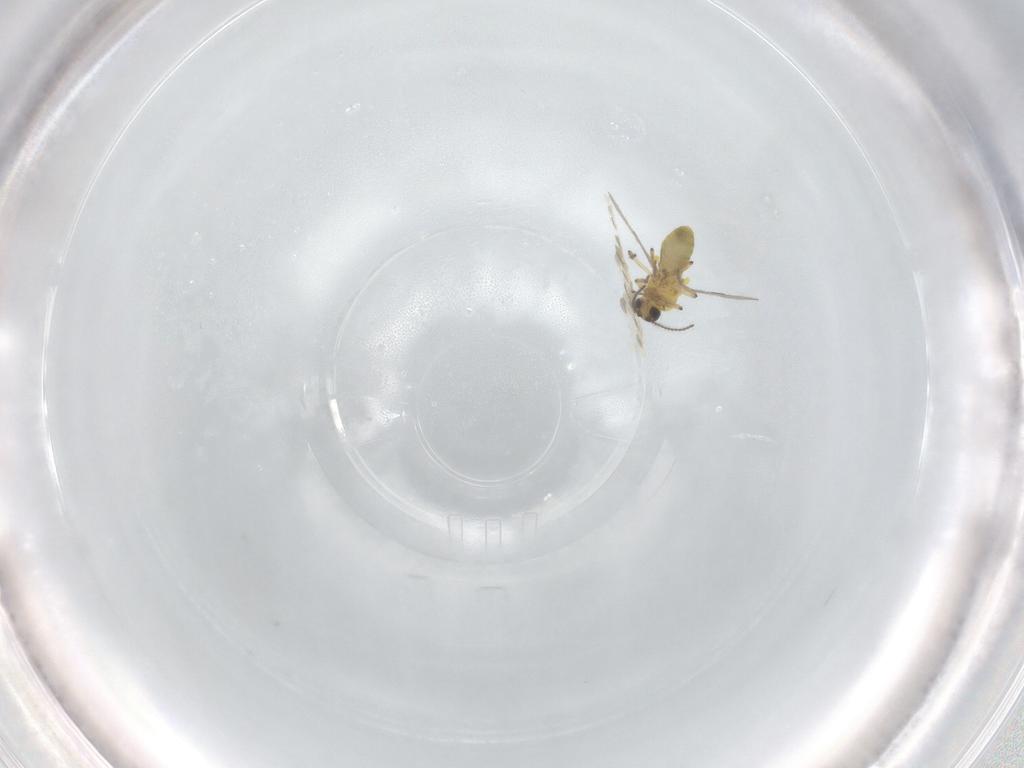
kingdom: Animalia
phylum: Arthropoda
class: Insecta
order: Diptera
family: Ceratopogonidae
